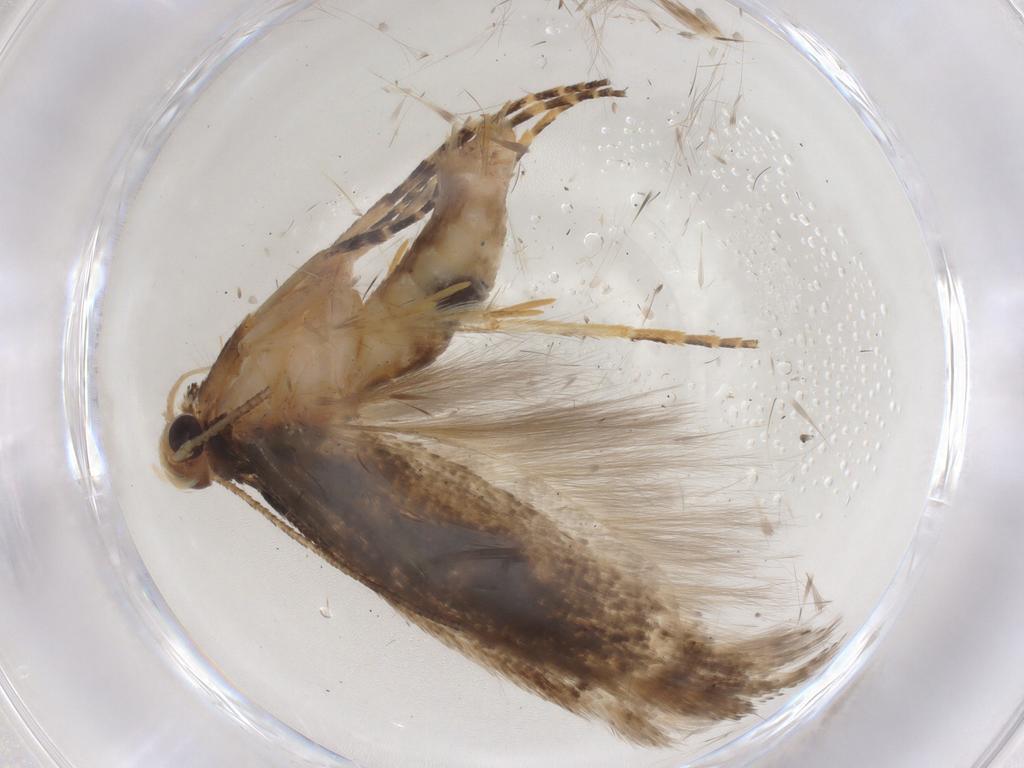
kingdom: Animalia
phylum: Arthropoda
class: Insecta
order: Lepidoptera
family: Gelechiidae
